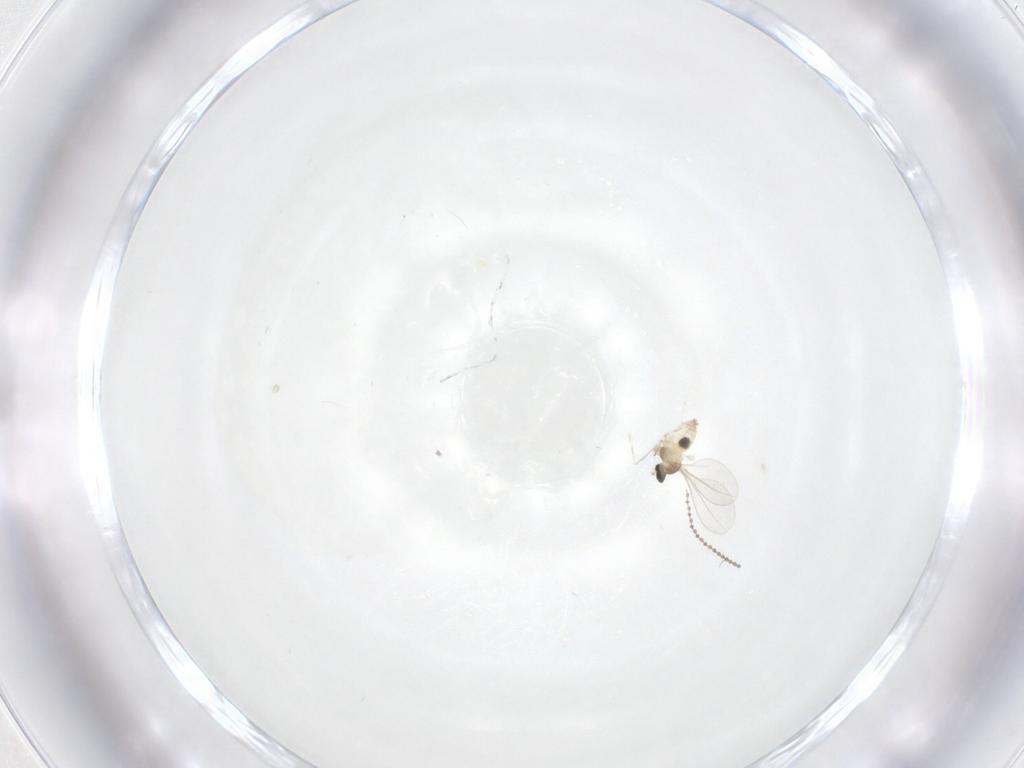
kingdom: Animalia
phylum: Arthropoda
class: Insecta
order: Diptera
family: Cecidomyiidae
